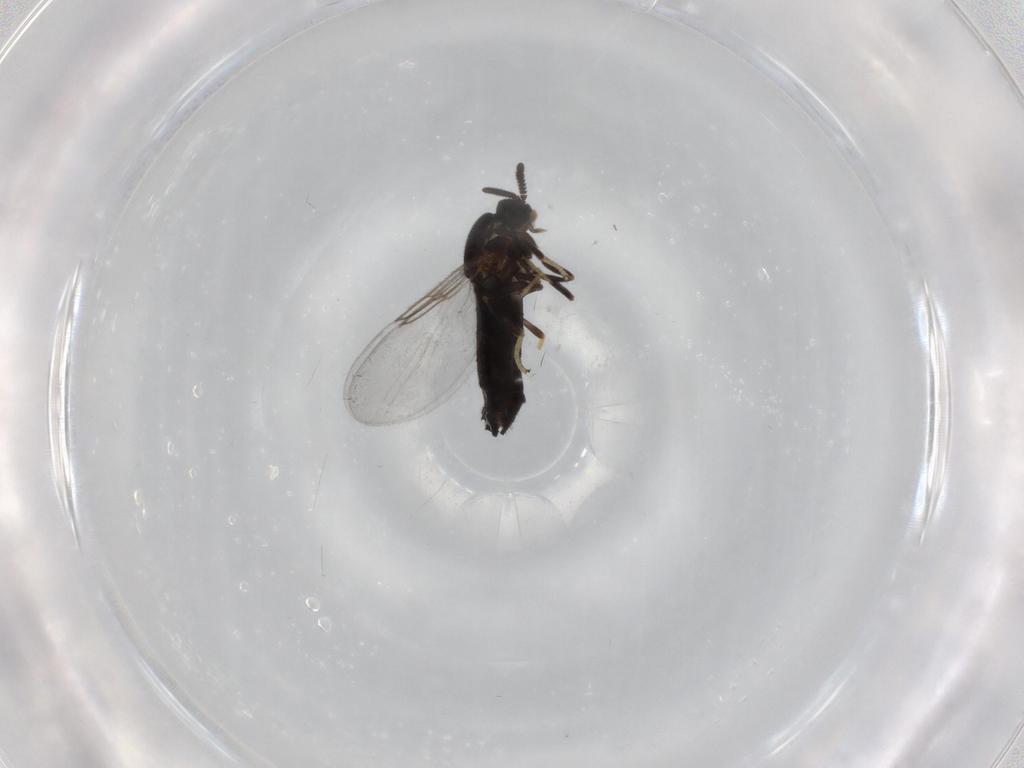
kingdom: Animalia
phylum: Arthropoda
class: Insecta
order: Diptera
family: Scatopsidae
